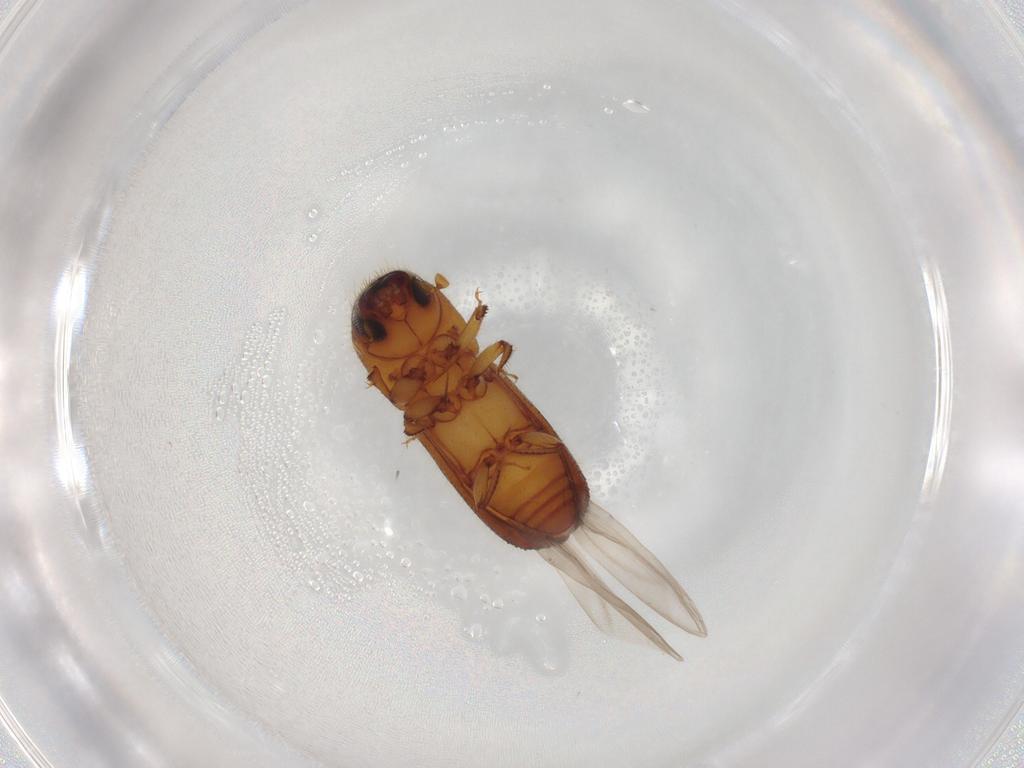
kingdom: Animalia
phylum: Arthropoda
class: Insecta
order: Coleoptera
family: Curculionidae
